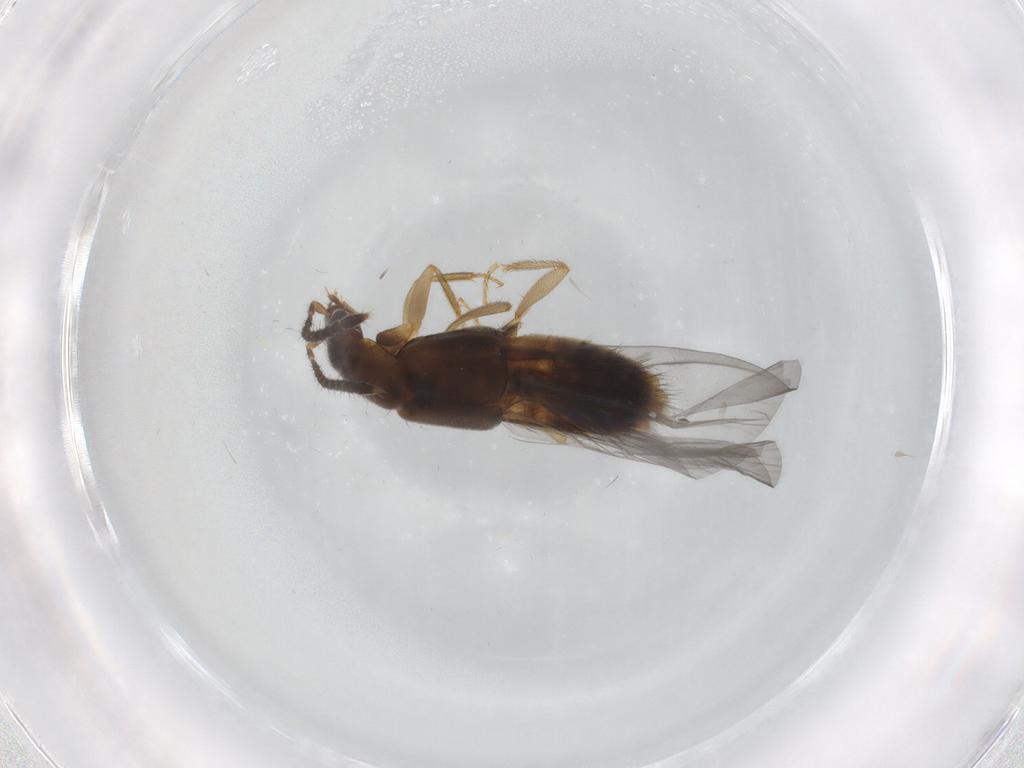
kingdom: Animalia
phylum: Arthropoda
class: Insecta
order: Coleoptera
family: Staphylinidae
